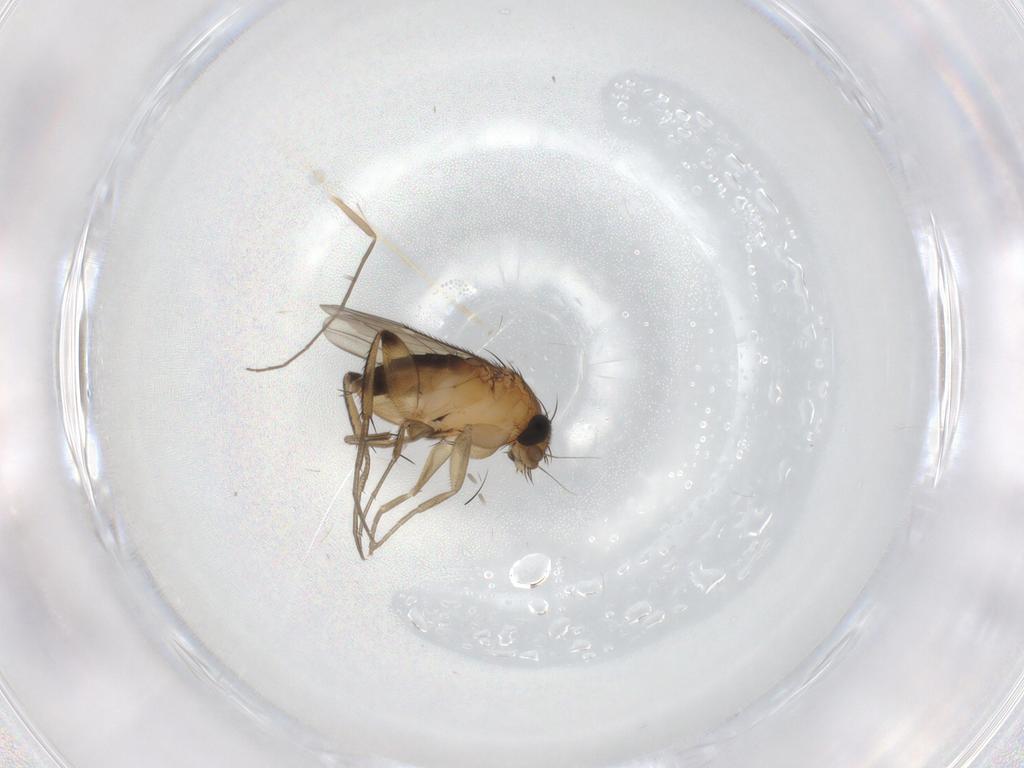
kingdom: Animalia
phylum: Arthropoda
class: Insecta
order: Diptera
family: Phoridae
